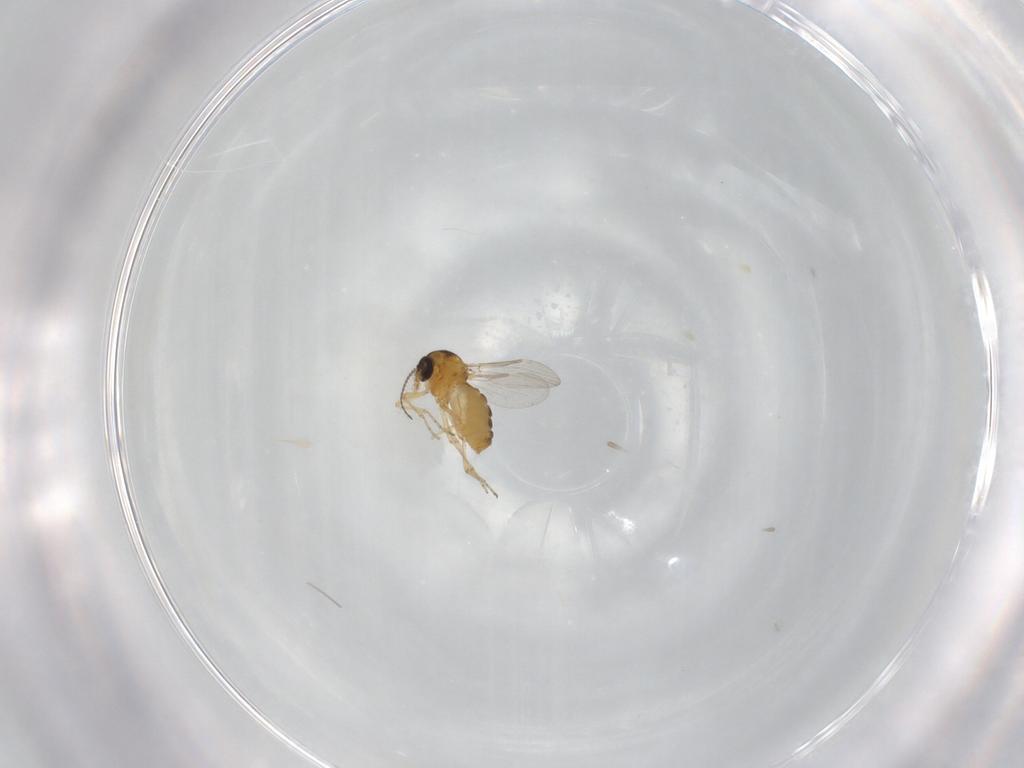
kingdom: Animalia
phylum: Arthropoda
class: Insecta
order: Diptera
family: Ceratopogonidae
